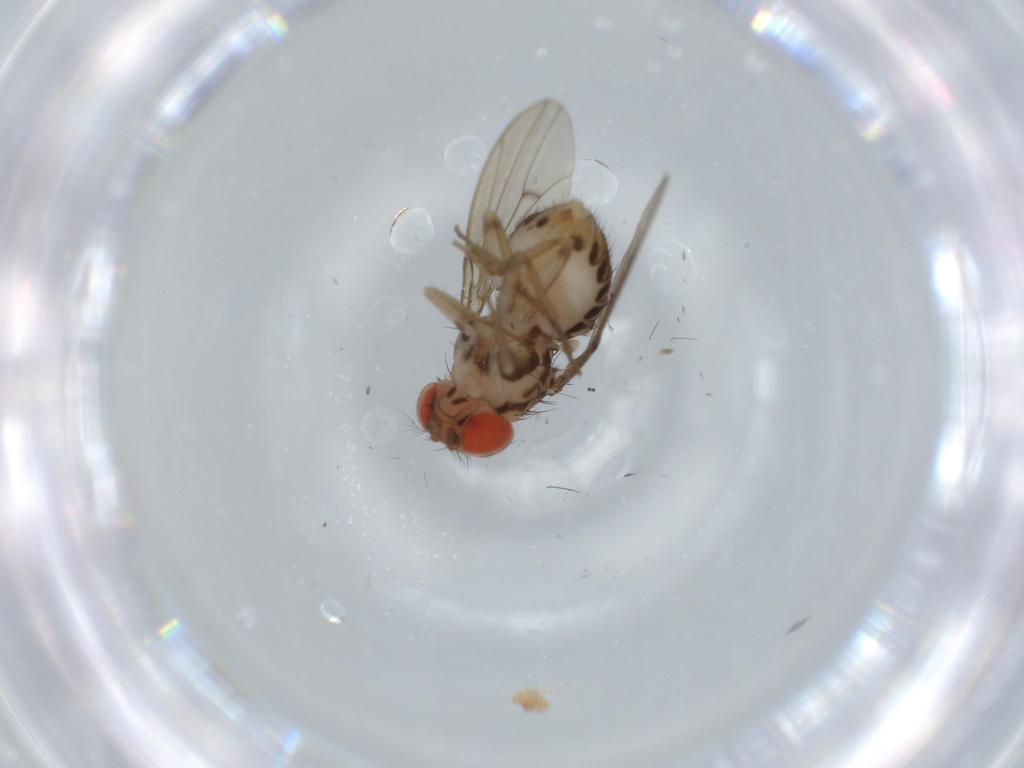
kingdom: Animalia
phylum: Arthropoda
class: Insecta
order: Diptera
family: Drosophilidae
